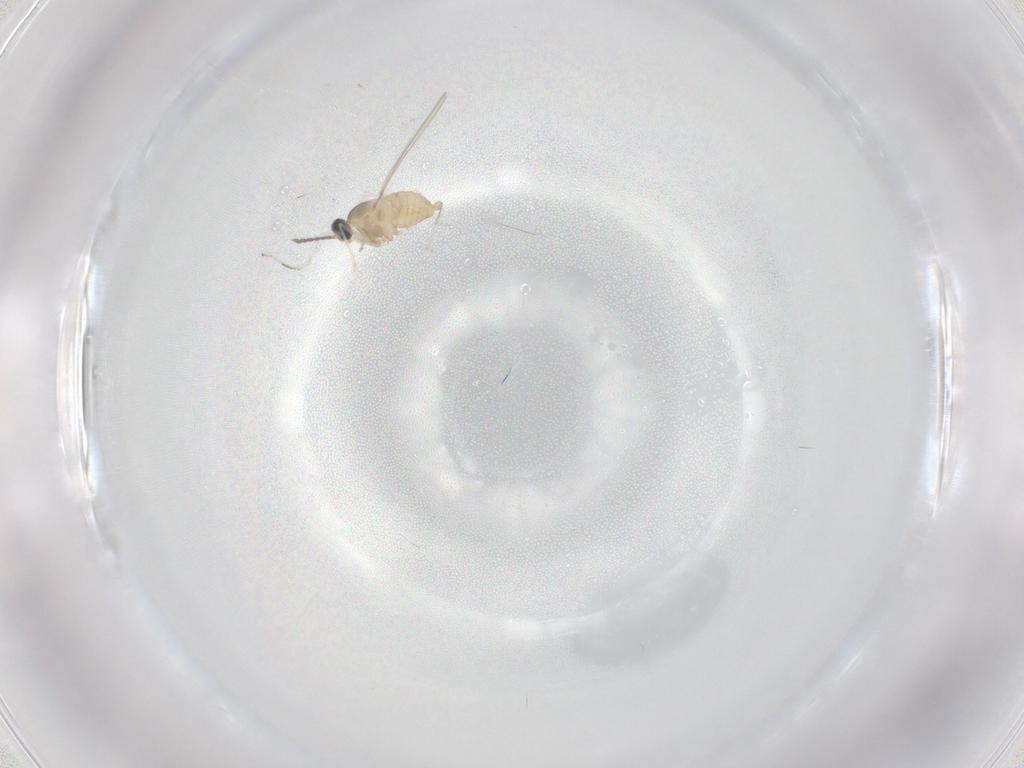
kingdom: Animalia
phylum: Arthropoda
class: Insecta
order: Diptera
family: Cecidomyiidae
